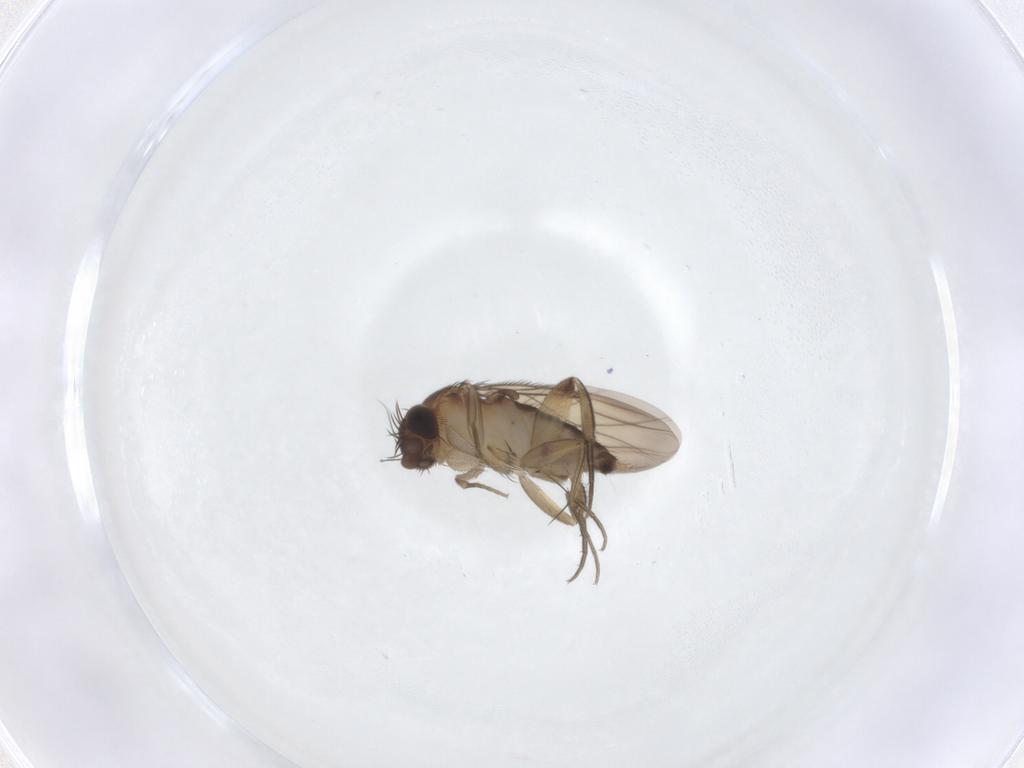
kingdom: Animalia
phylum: Arthropoda
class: Insecta
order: Diptera
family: Phoridae
